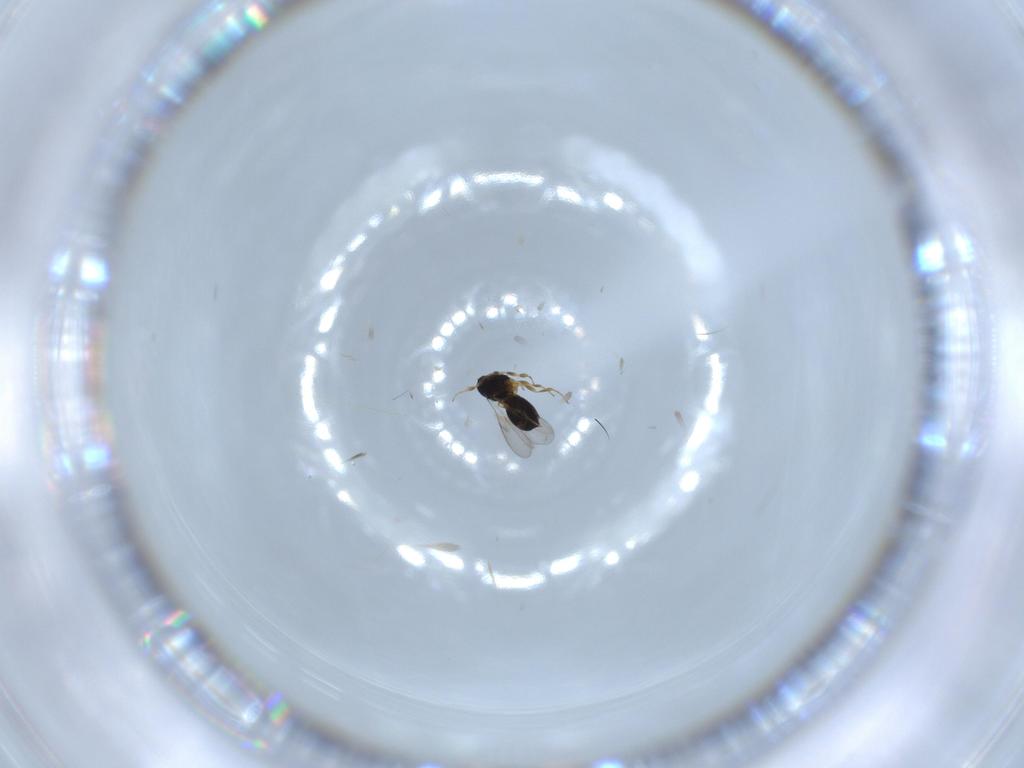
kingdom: Animalia
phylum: Arthropoda
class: Insecta
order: Hymenoptera
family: Scelionidae
